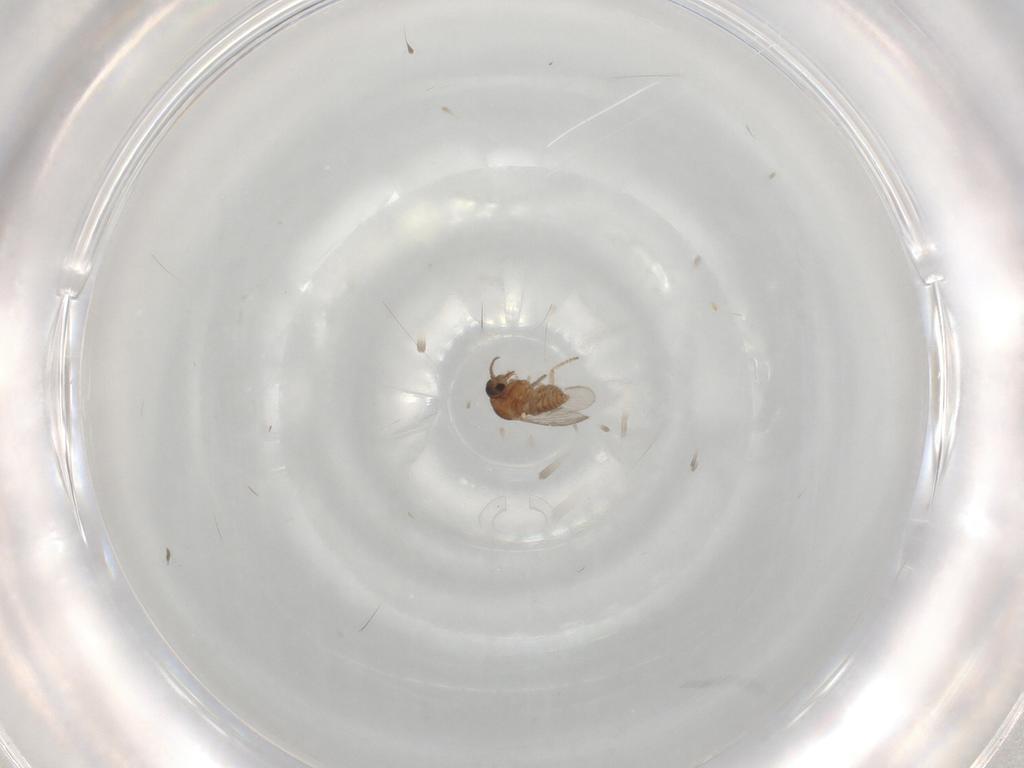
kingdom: Animalia
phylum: Arthropoda
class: Insecta
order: Diptera
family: Ceratopogonidae
